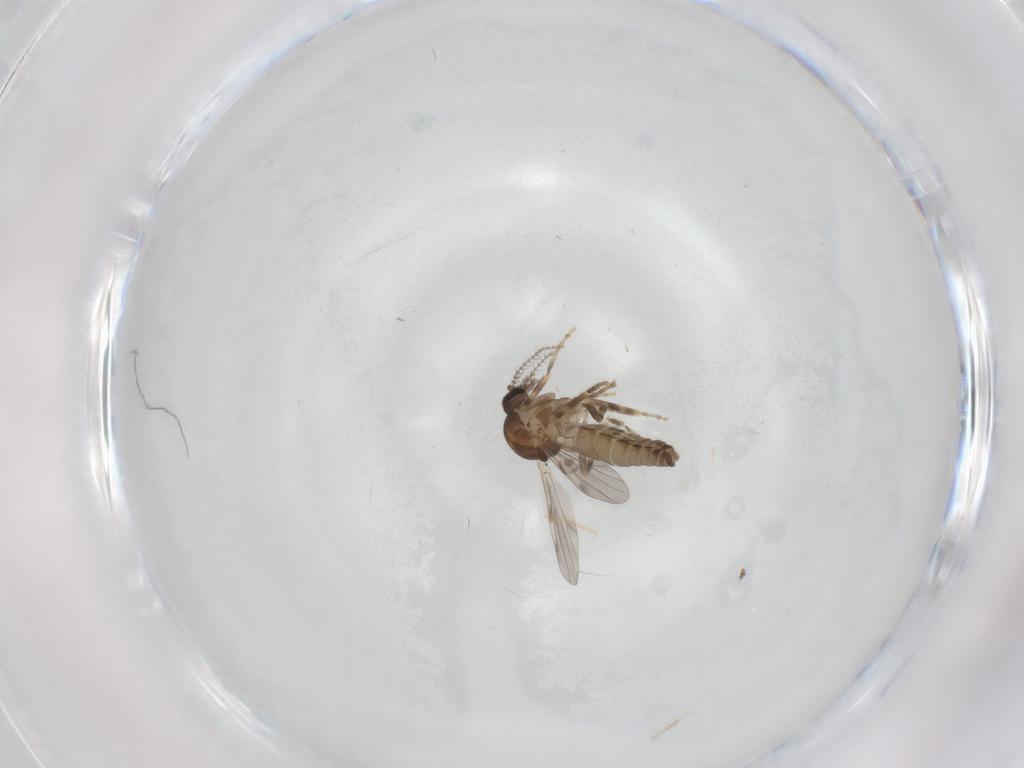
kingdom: Animalia
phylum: Arthropoda
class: Insecta
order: Diptera
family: Ceratopogonidae
